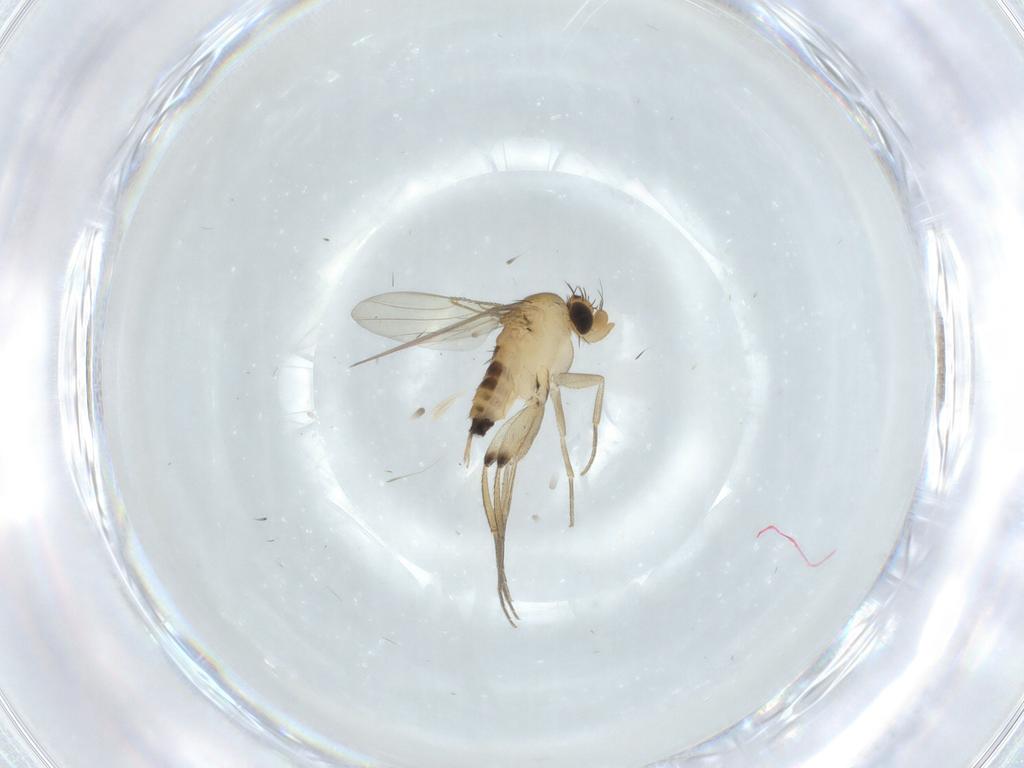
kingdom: Animalia
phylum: Arthropoda
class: Insecta
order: Diptera
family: Phoridae
